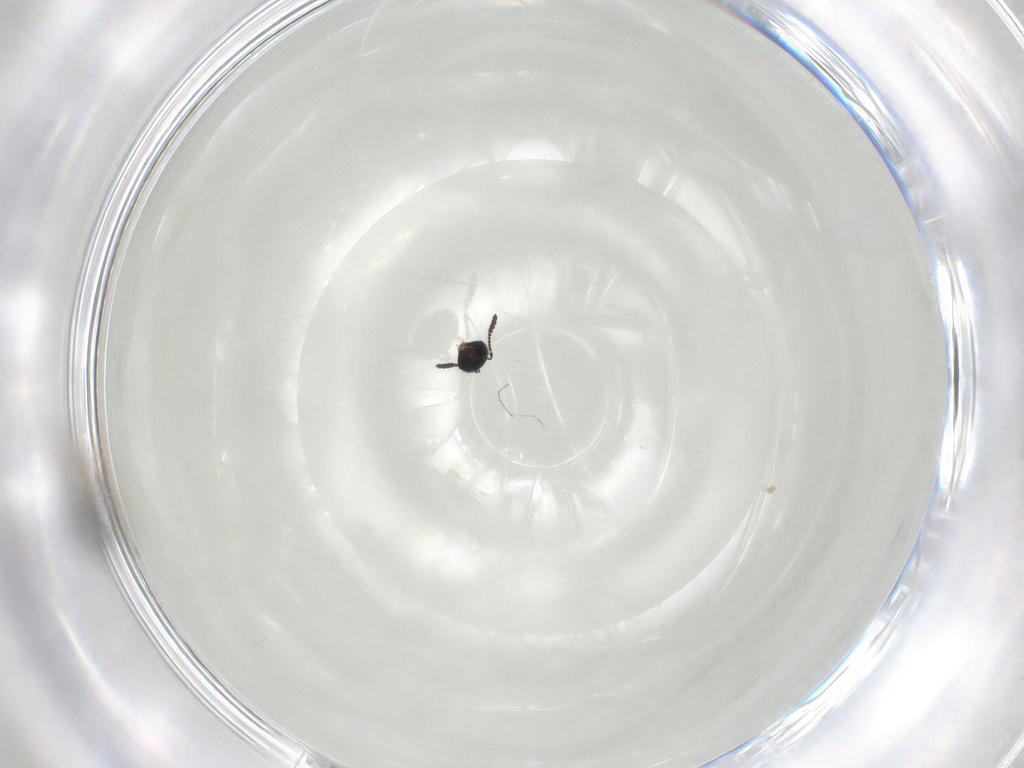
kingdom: Animalia
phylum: Arthropoda
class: Insecta
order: Hymenoptera
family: Scelionidae
